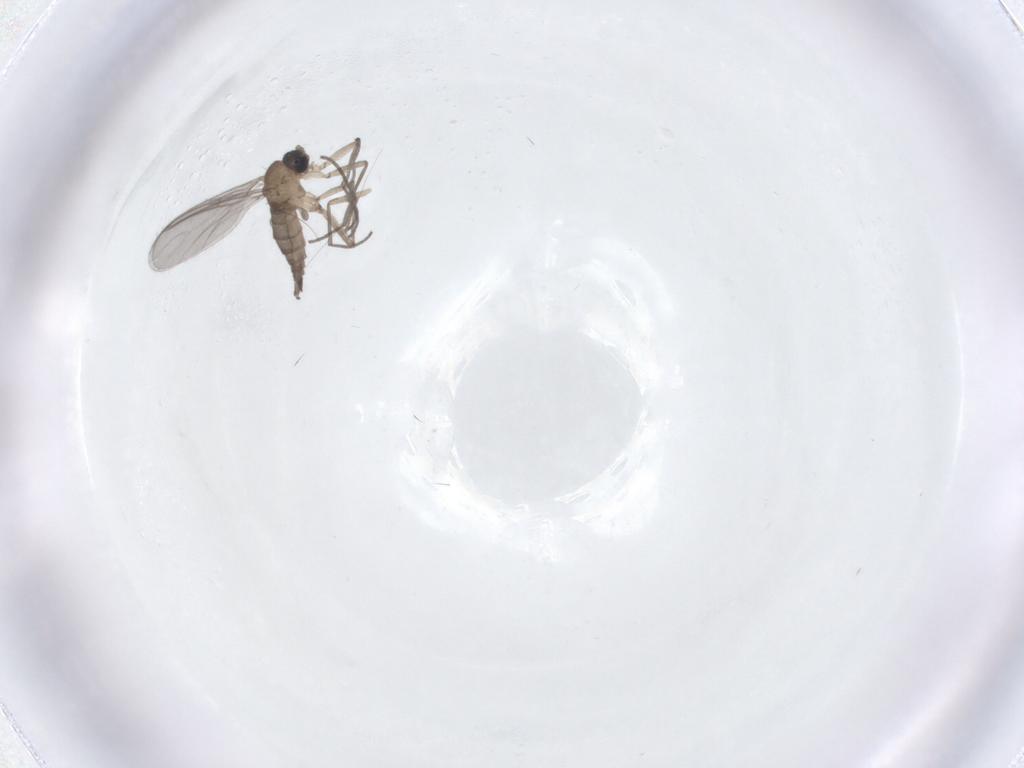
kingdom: Animalia
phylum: Arthropoda
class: Insecta
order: Diptera
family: Sciaridae
